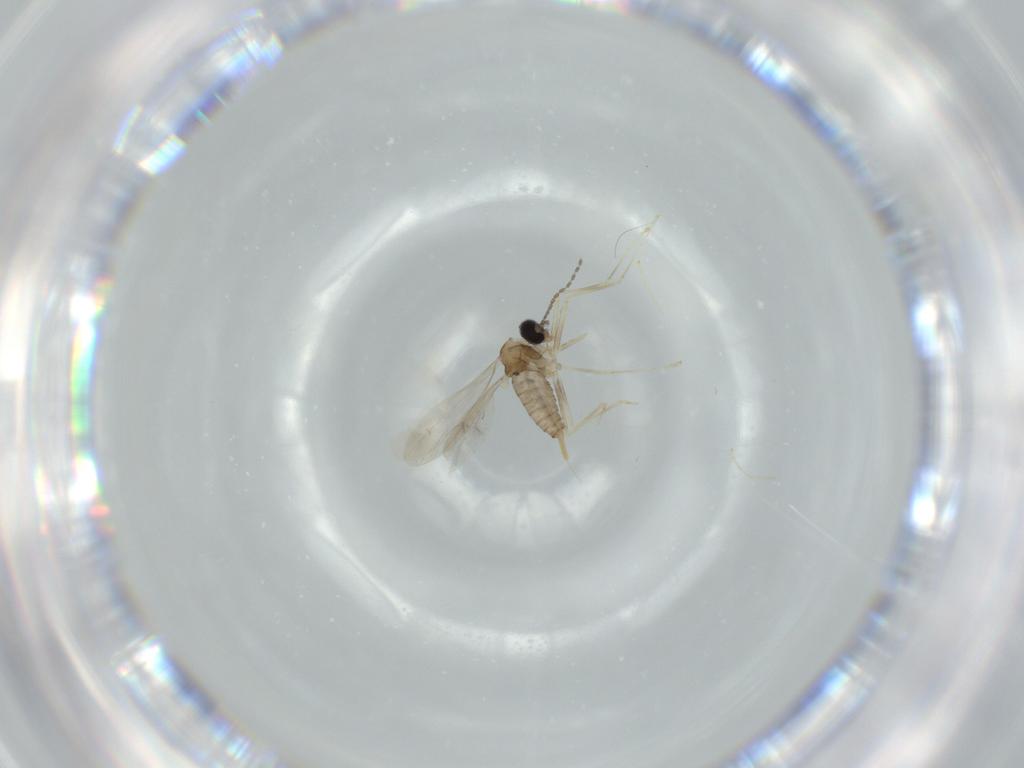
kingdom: Animalia
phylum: Arthropoda
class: Insecta
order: Diptera
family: Cecidomyiidae
